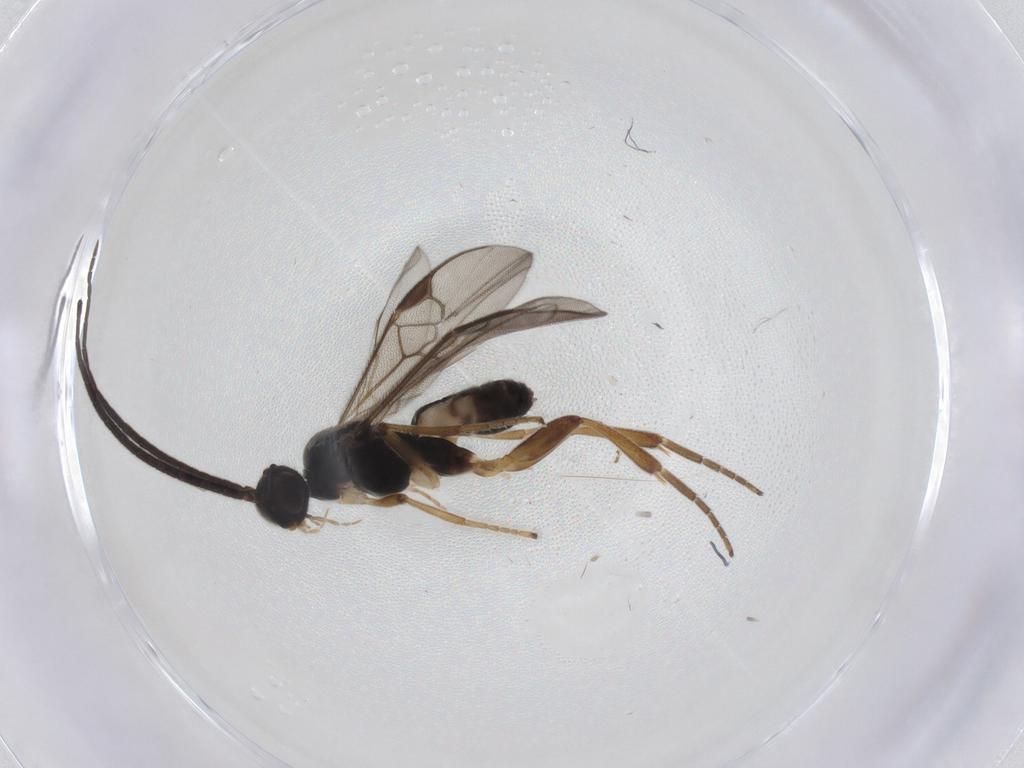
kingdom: Animalia
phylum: Arthropoda
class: Insecta
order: Hymenoptera
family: Braconidae
